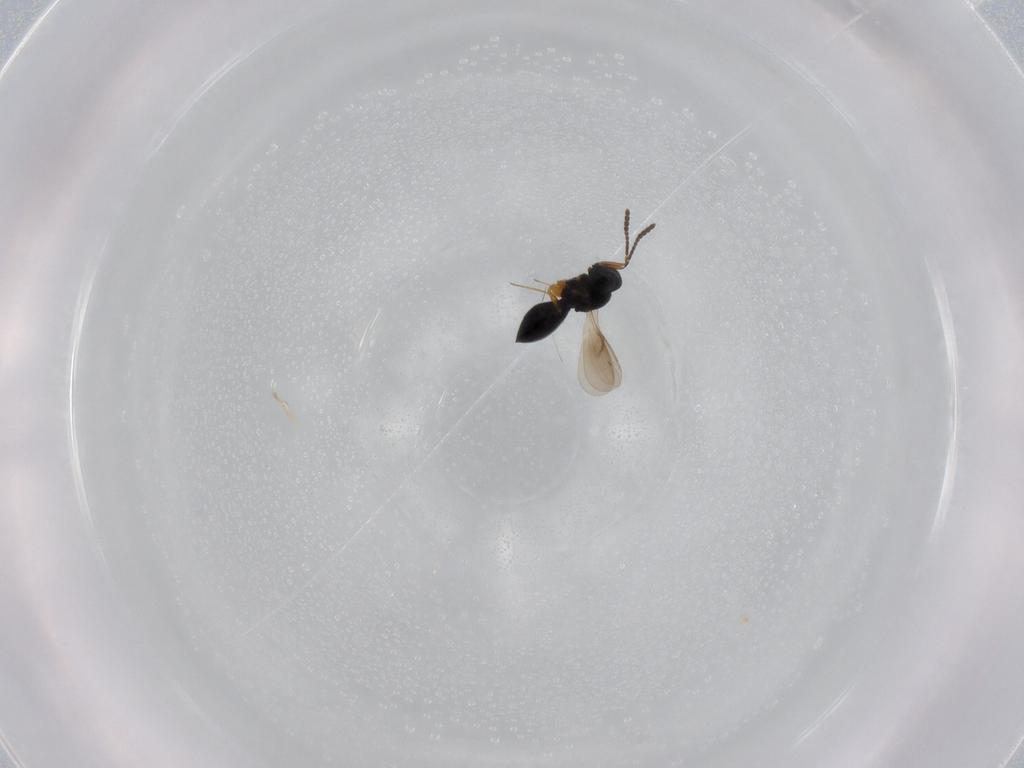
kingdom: Animalia
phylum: Arthropoda
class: Insecta
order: Hymenoptera
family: Scelionidae
